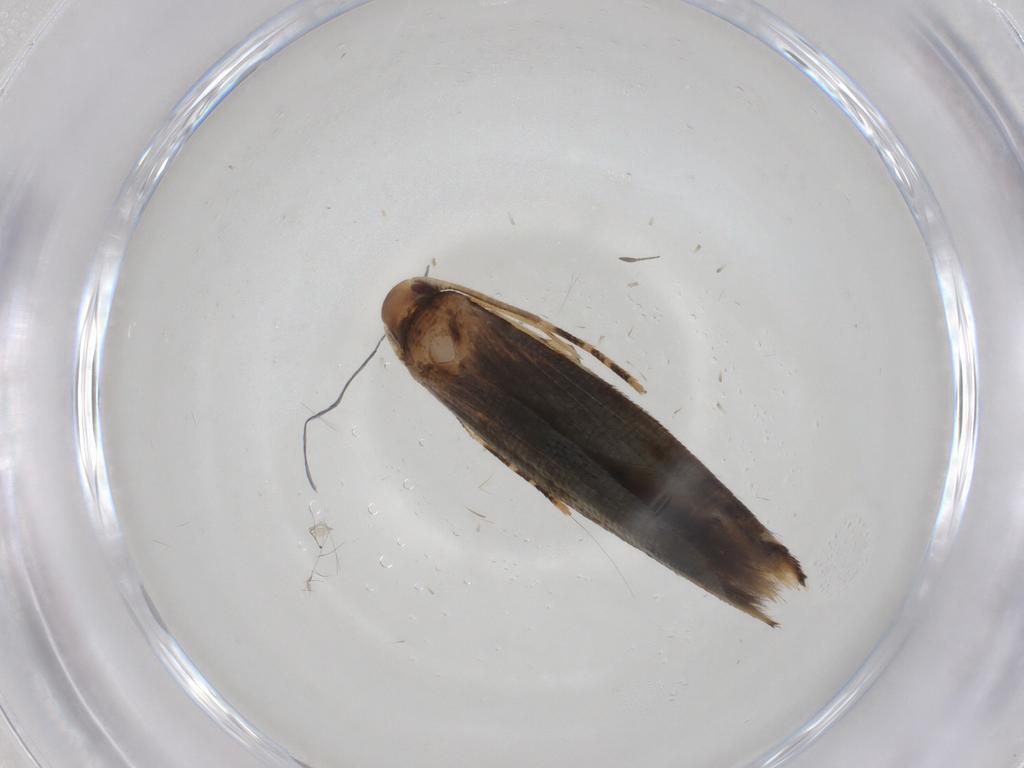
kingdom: Animalia
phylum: Arthropoda
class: Insecta
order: Lepidoptera
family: Momphidae
